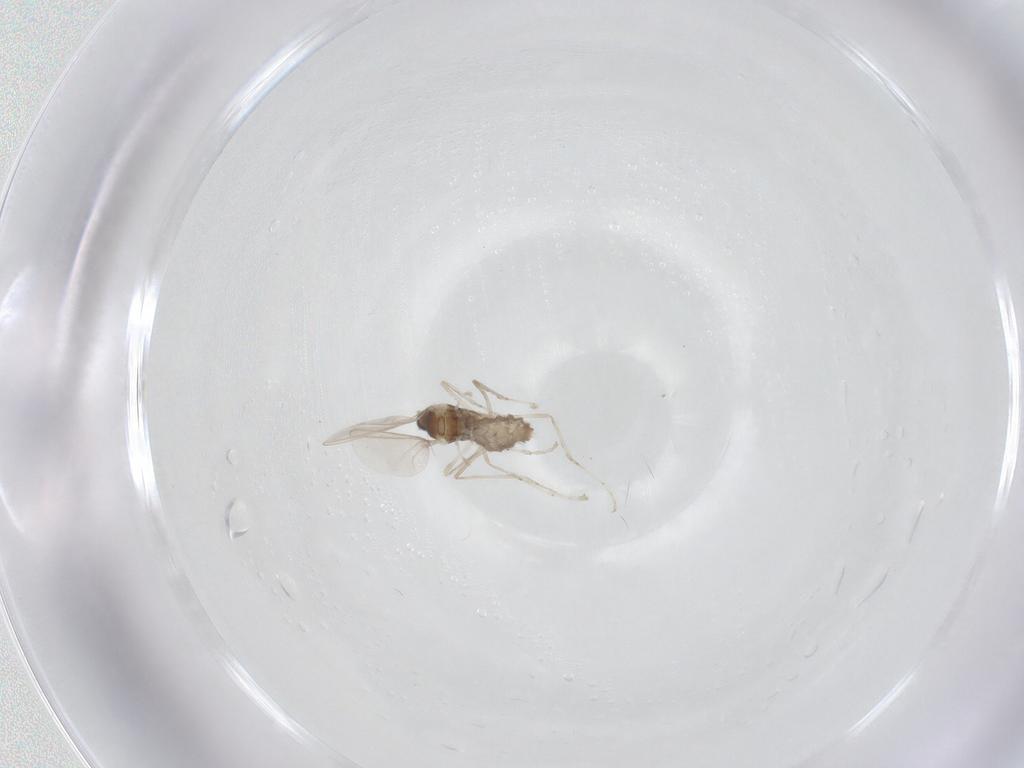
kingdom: Animalia
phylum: Arthropoda
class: Insecta
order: Diptera
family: Cecidomyiidae
